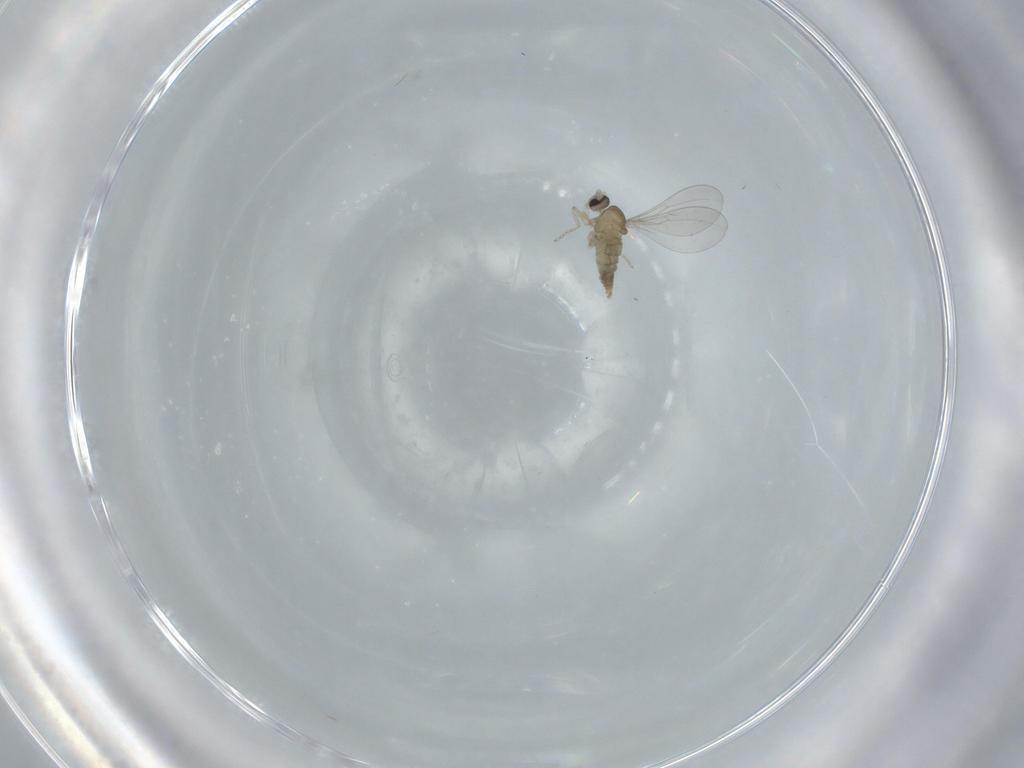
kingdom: Animalia
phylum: Arthropoda
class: Insecta
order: Diptera
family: Cecidomyiidae
